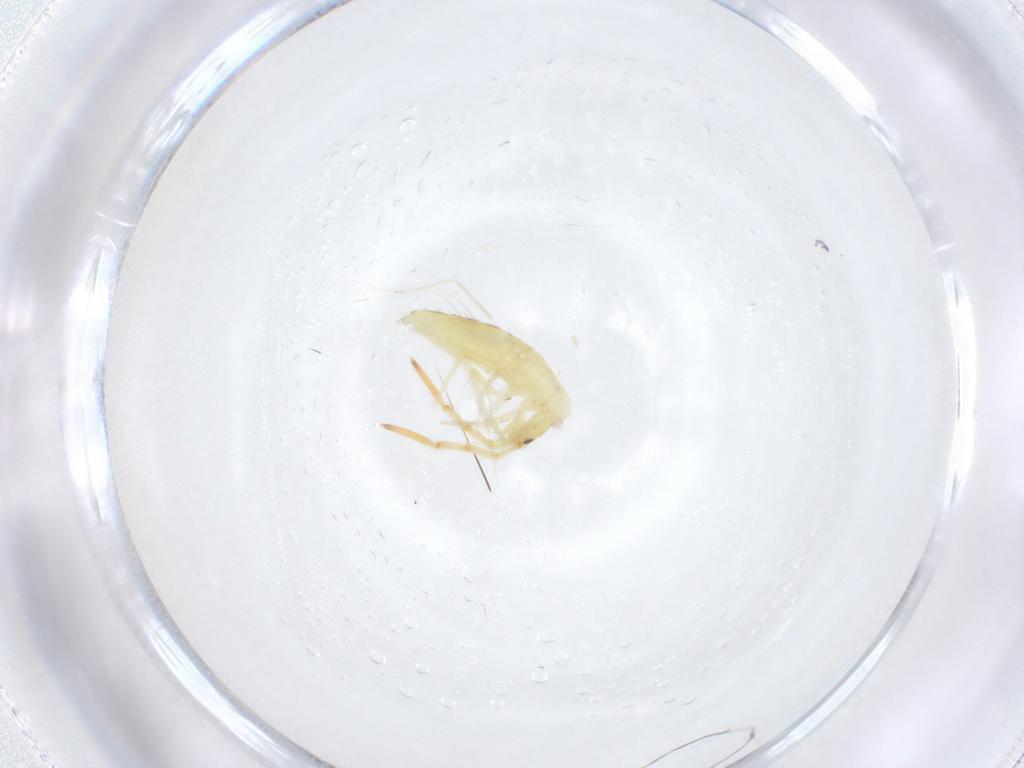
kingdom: Animalia
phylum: Arthropoda
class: Collembola
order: Entomobryomorpha
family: Entomobryidae
